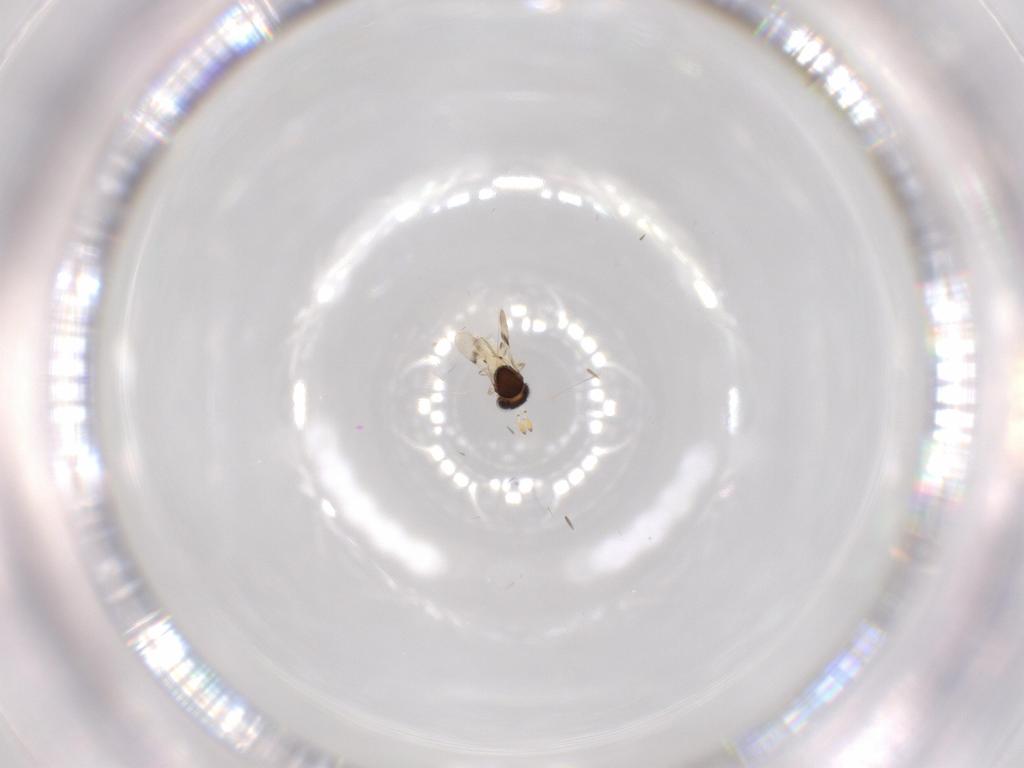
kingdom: Animalia
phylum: Arthropoda
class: Insecta
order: Hymenoptera
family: Scelionidae
